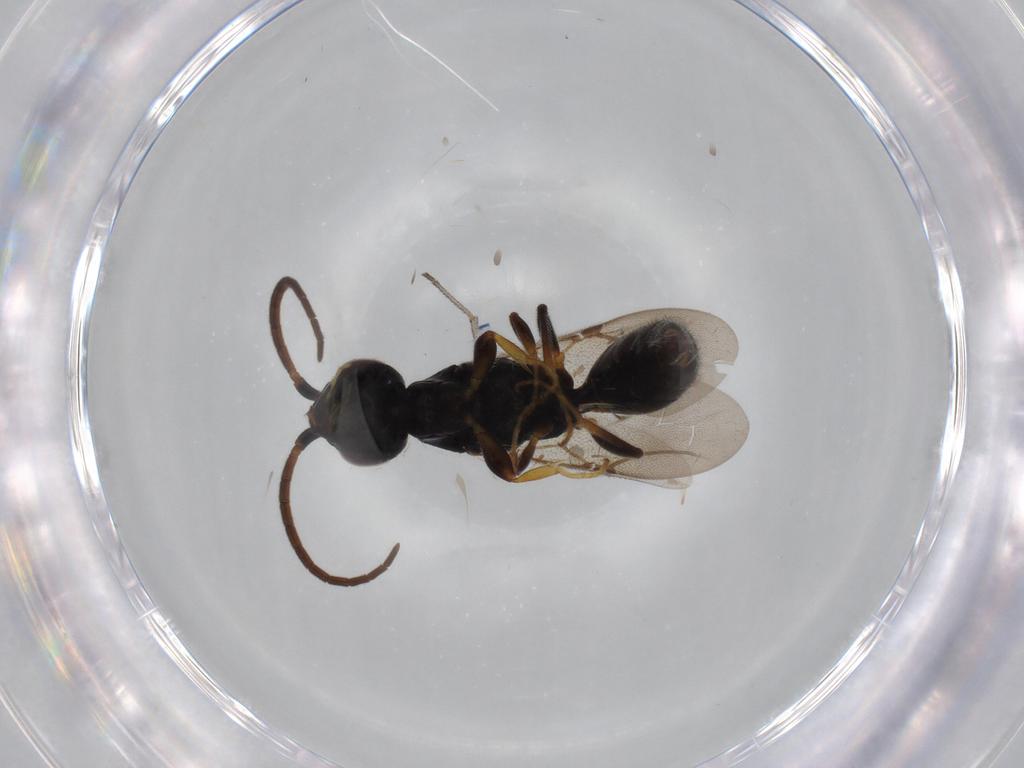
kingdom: Animalia
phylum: Arthropoda
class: Insecta
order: Hymenoptera
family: Bethylidae
